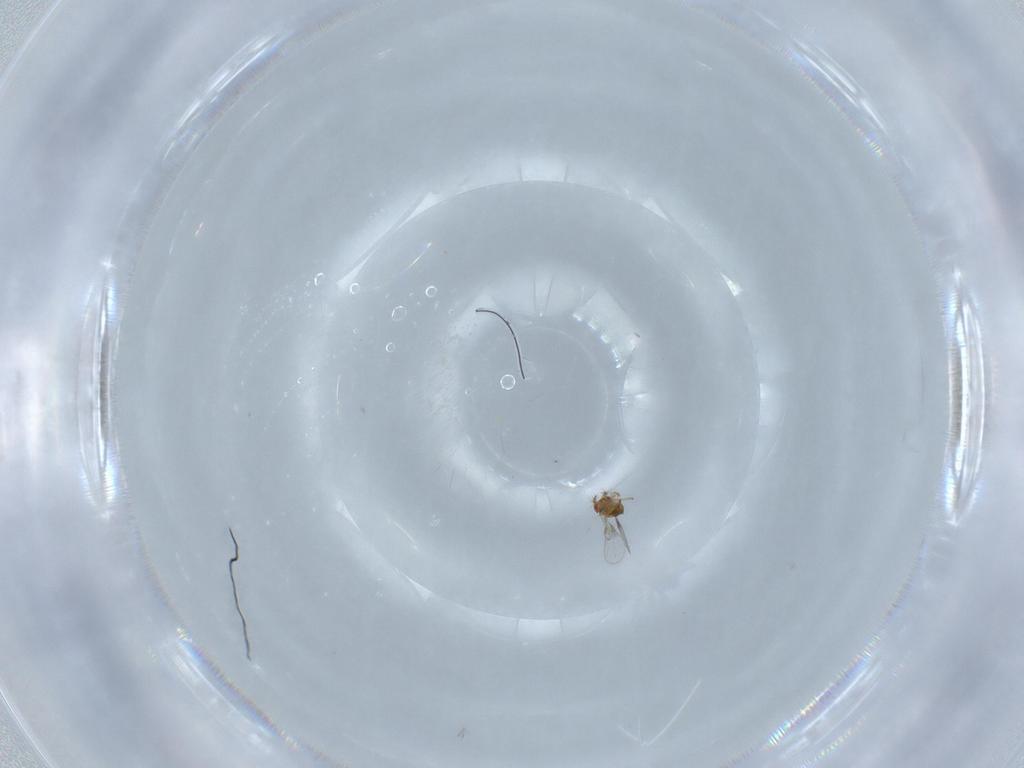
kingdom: Animalia
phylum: Arthropoda
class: Insecta
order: Hymenoptera
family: Trichogrammatidae
